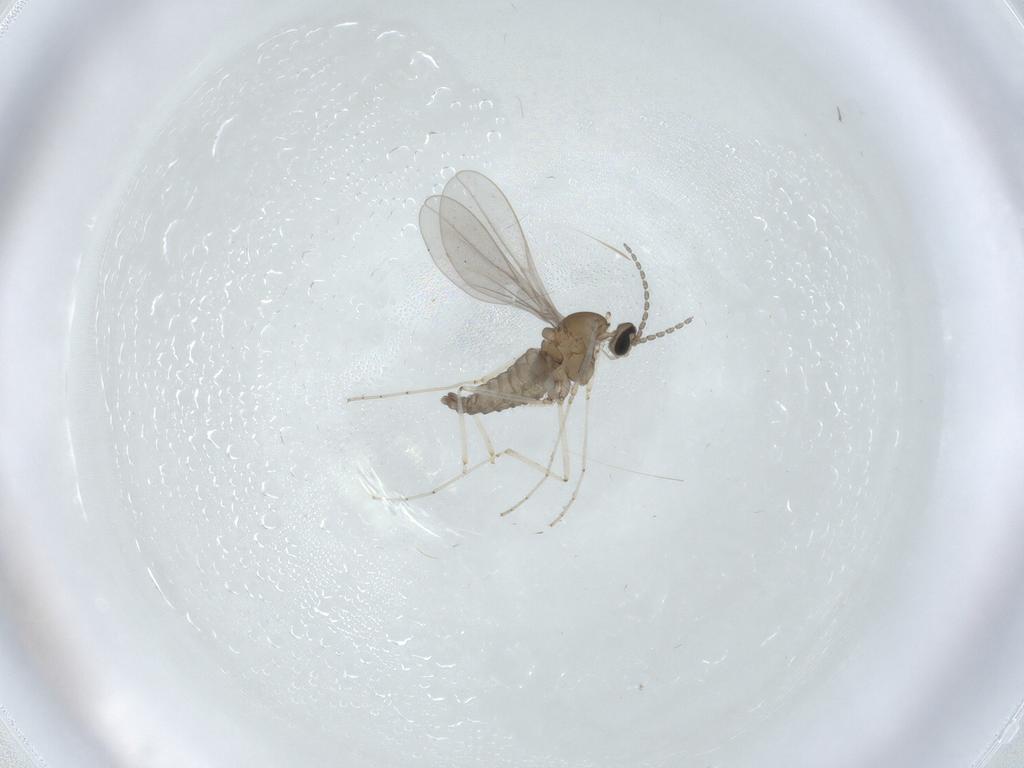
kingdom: Animalia
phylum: Arthropoda
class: Insecta
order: Diptera
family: Cecidomyiidae
